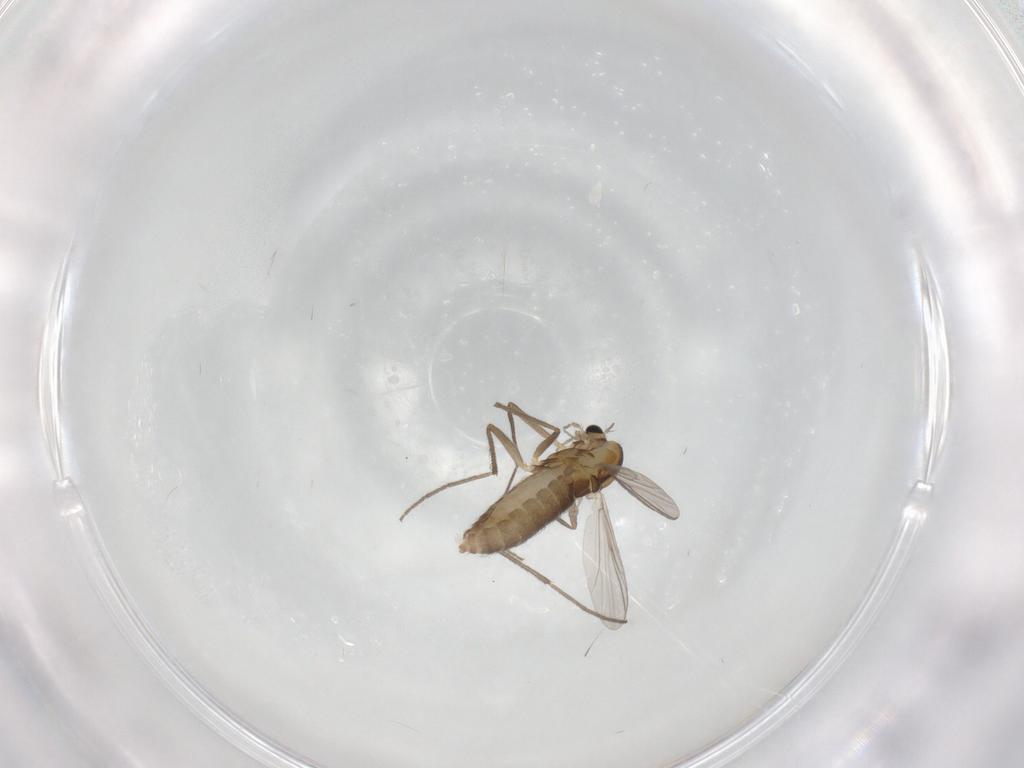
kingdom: Animalia
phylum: Arthropoda
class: Insecta
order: Diptera
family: Chironomidae
